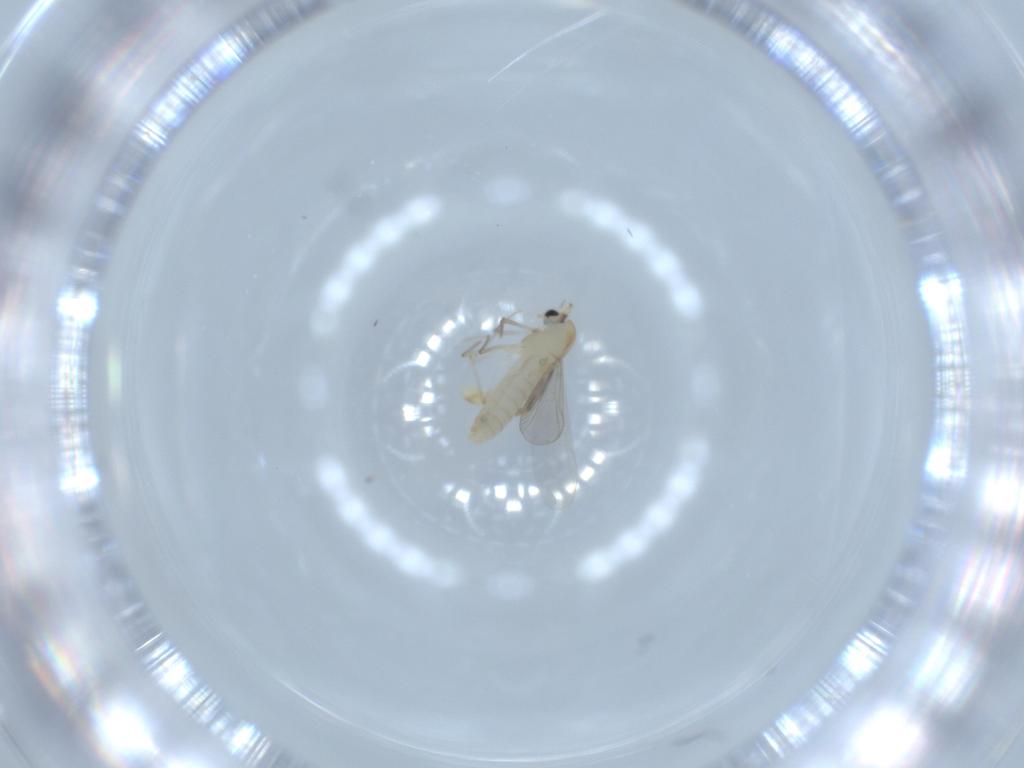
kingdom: Animalia
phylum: Arthropoda
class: Insecta
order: Diptera
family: Chironomidae
